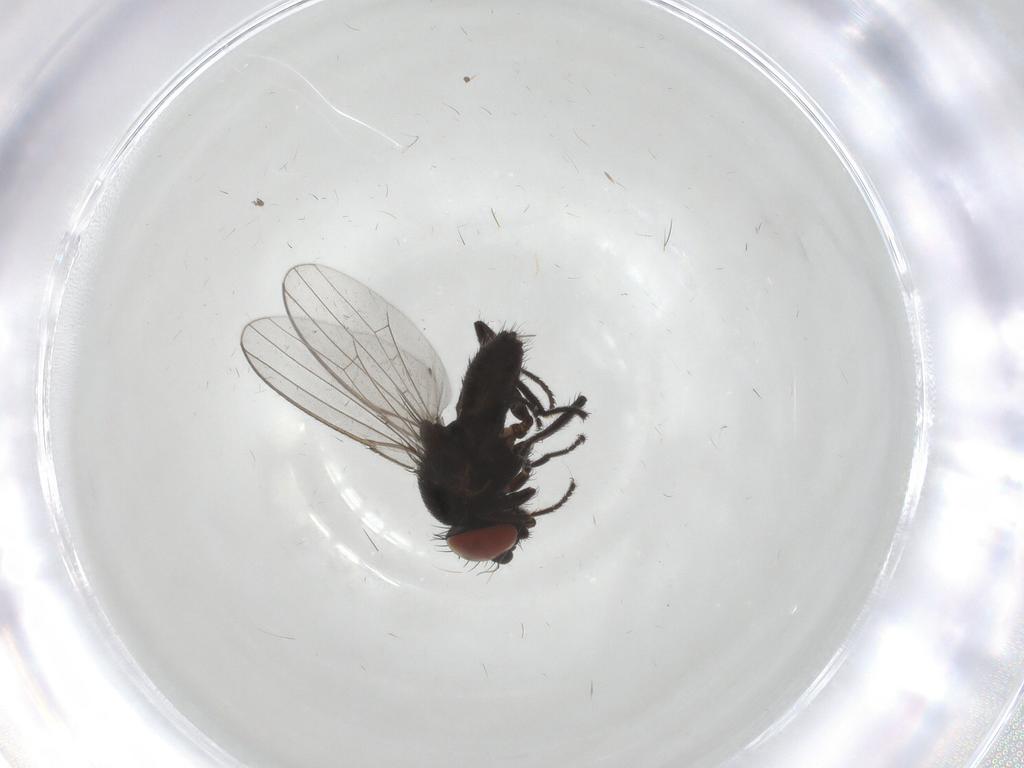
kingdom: Animalia
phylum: Arthropoda
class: Insecta
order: Diptera
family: Milichiidae
